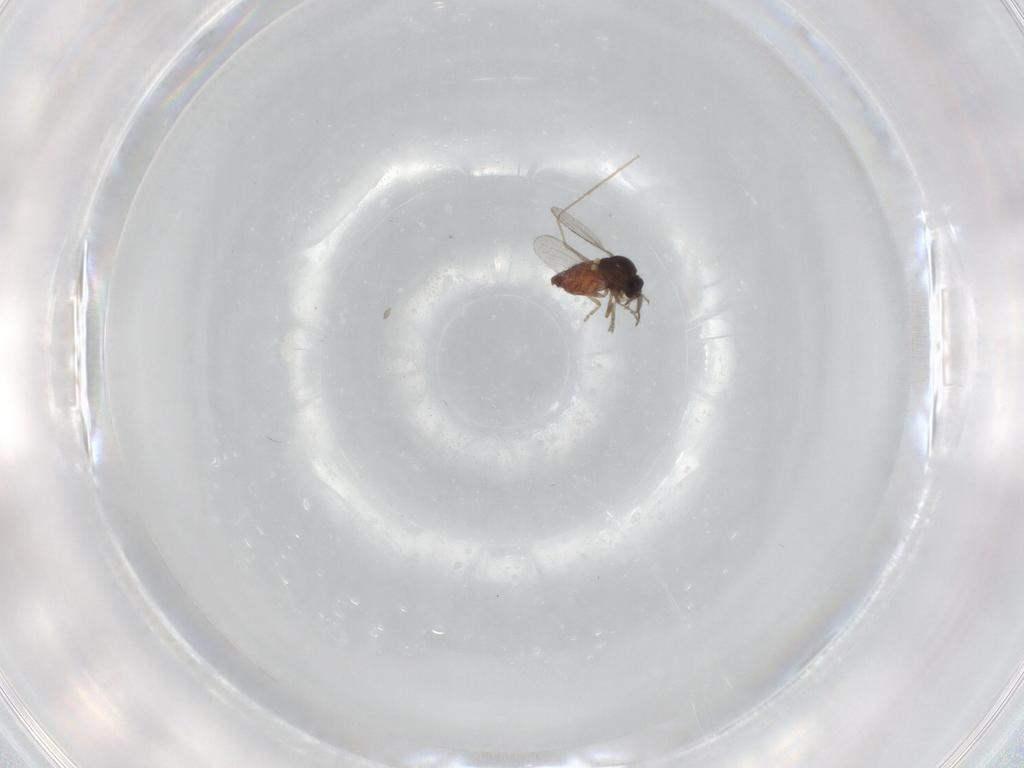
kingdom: Animalia
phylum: Arthropoda
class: Insecta
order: Diptera
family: Ceratopogonidae
